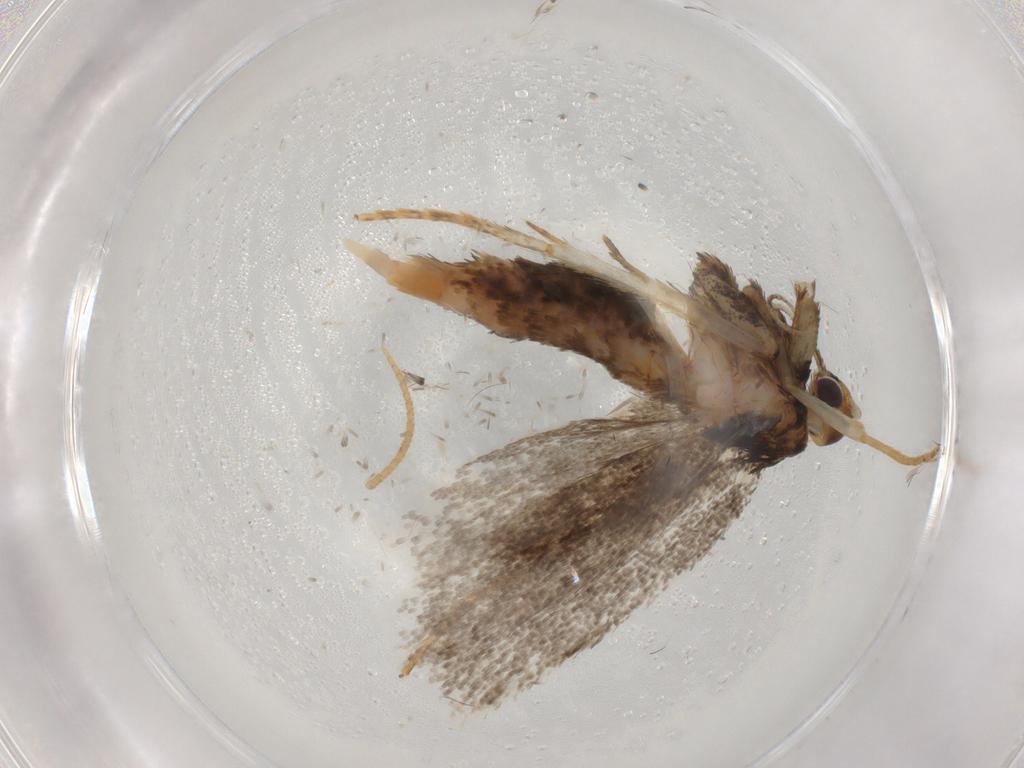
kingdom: Animalia
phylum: Arthropoda
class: Insecta
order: Lepidoptera
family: Lecithoceridae
